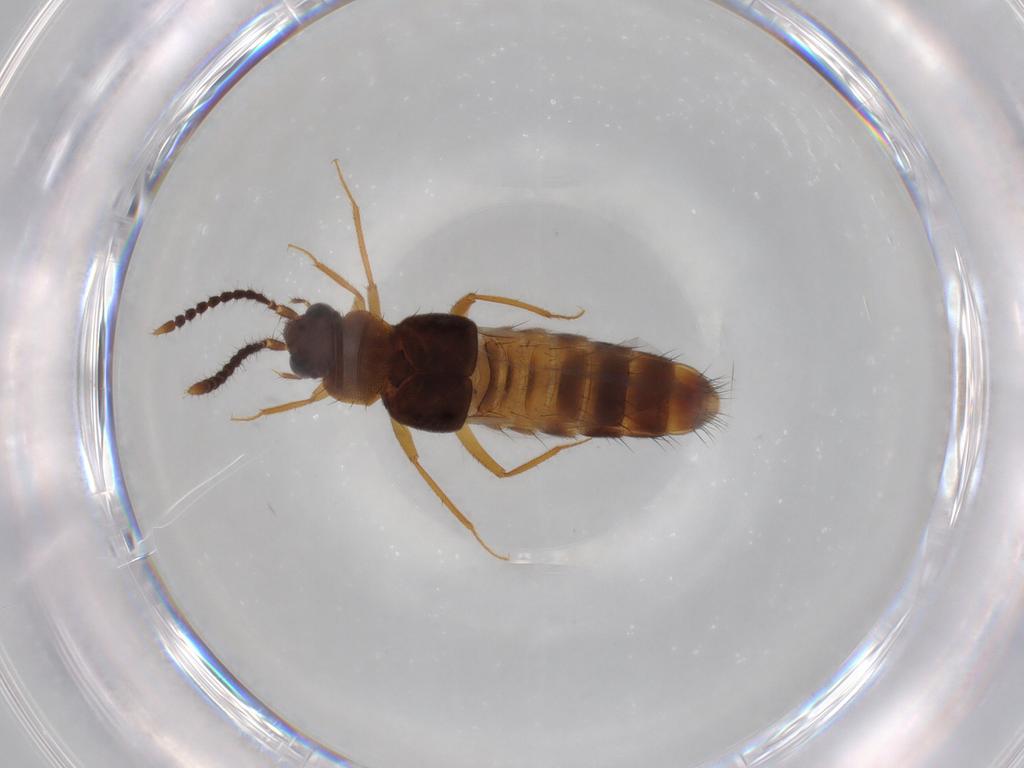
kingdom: Animalia
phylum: Arthropoda
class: Insecta
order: Coleoptera
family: Staphylinidae
